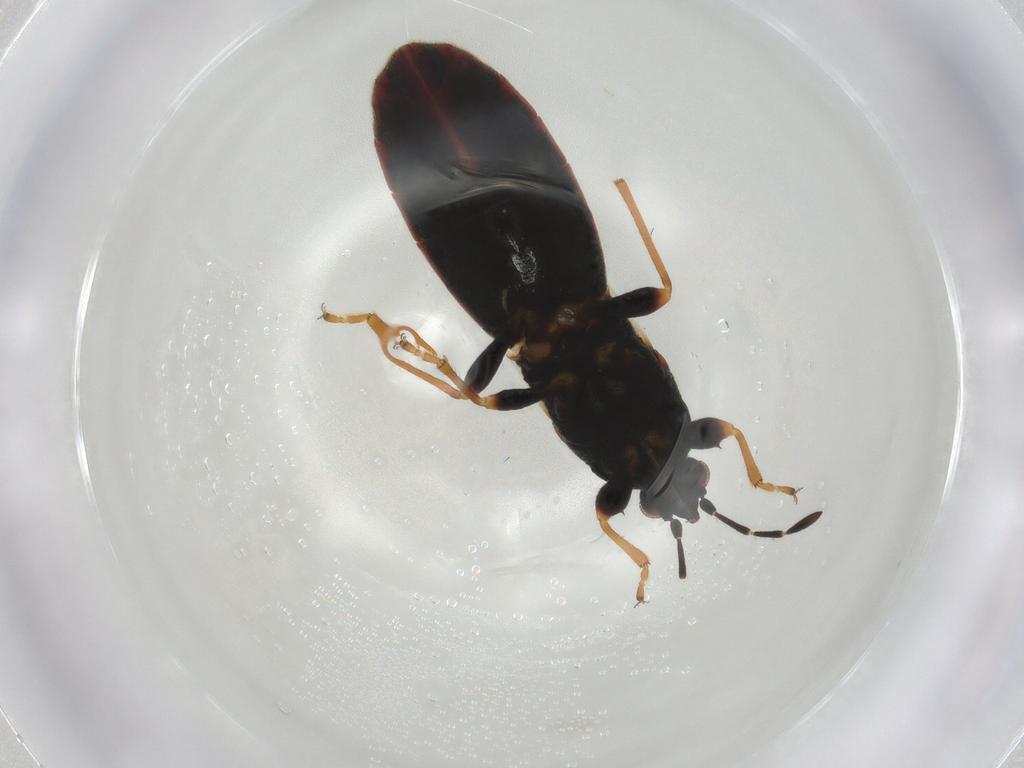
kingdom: Animalia
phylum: Arthropoda
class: Insecta
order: Hemiptera
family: Blissidae
